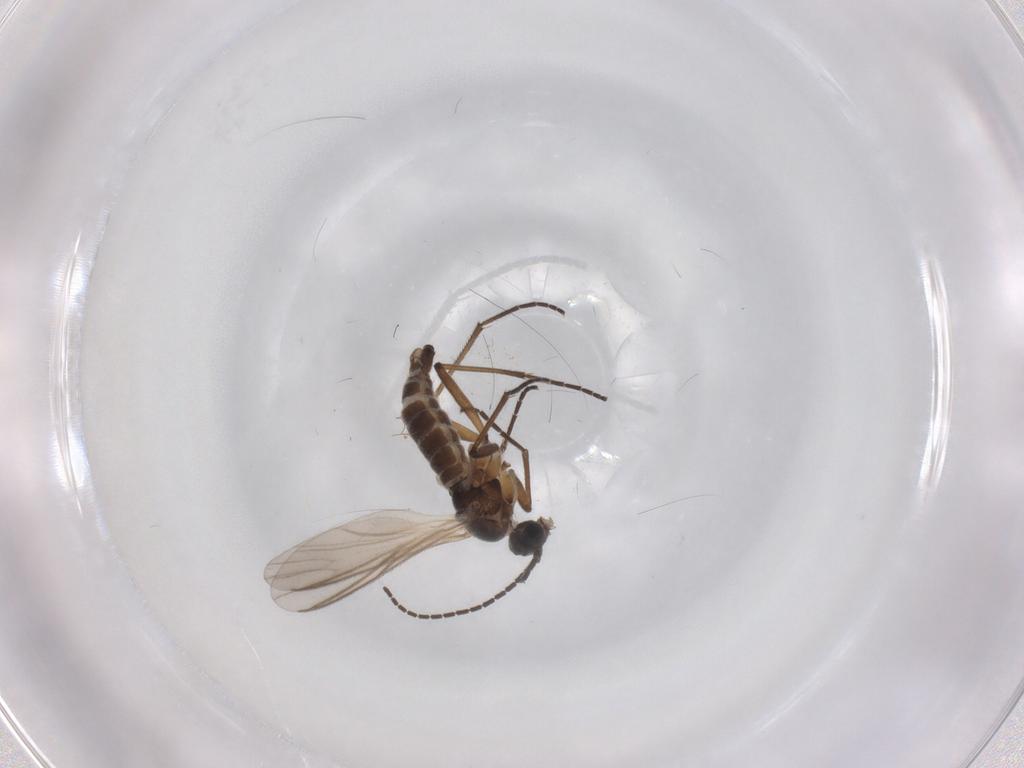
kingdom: Animalia
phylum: Arthropoda
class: Insecta
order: Diptera
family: Sciaridae
